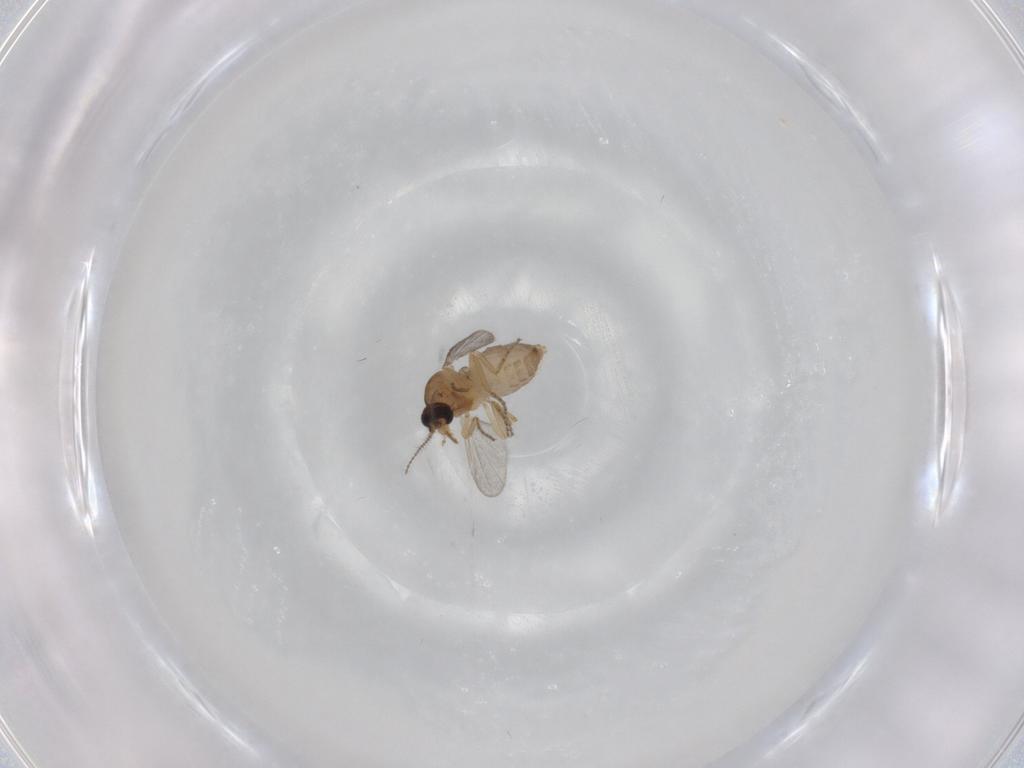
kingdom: Animalia
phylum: Arthropoda
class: Insecta
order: Diptera
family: Ceratopogonidae
